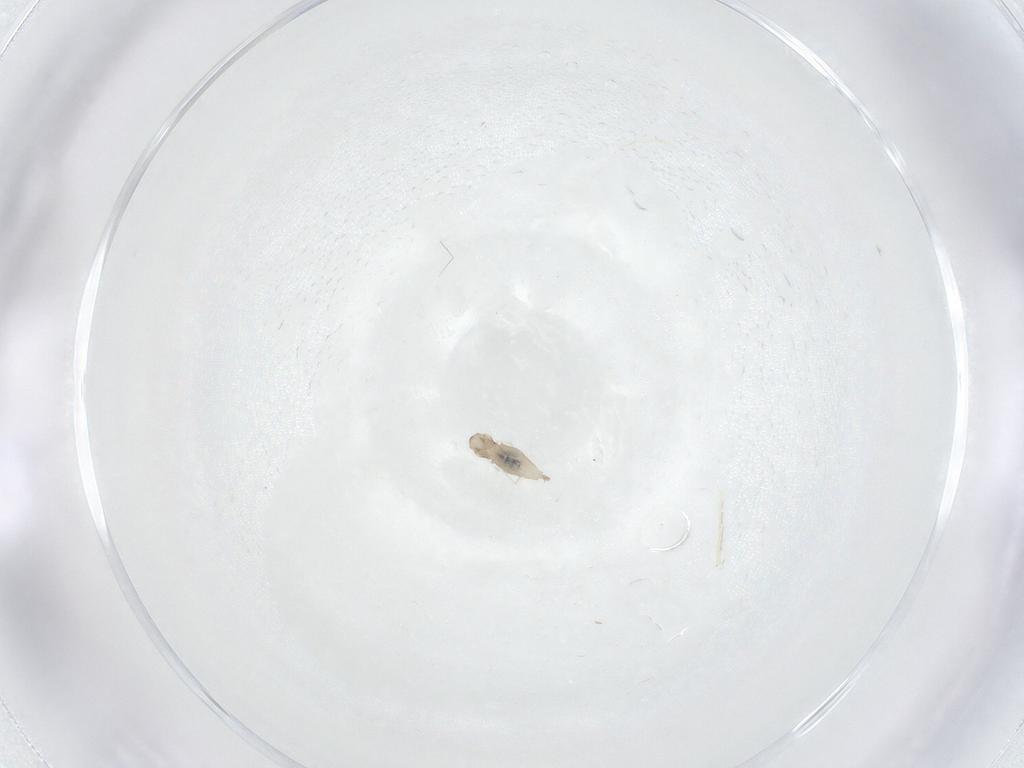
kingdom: Animalia
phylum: Arthropoda
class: Insecta
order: Diptera
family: Cecidomyiidae
